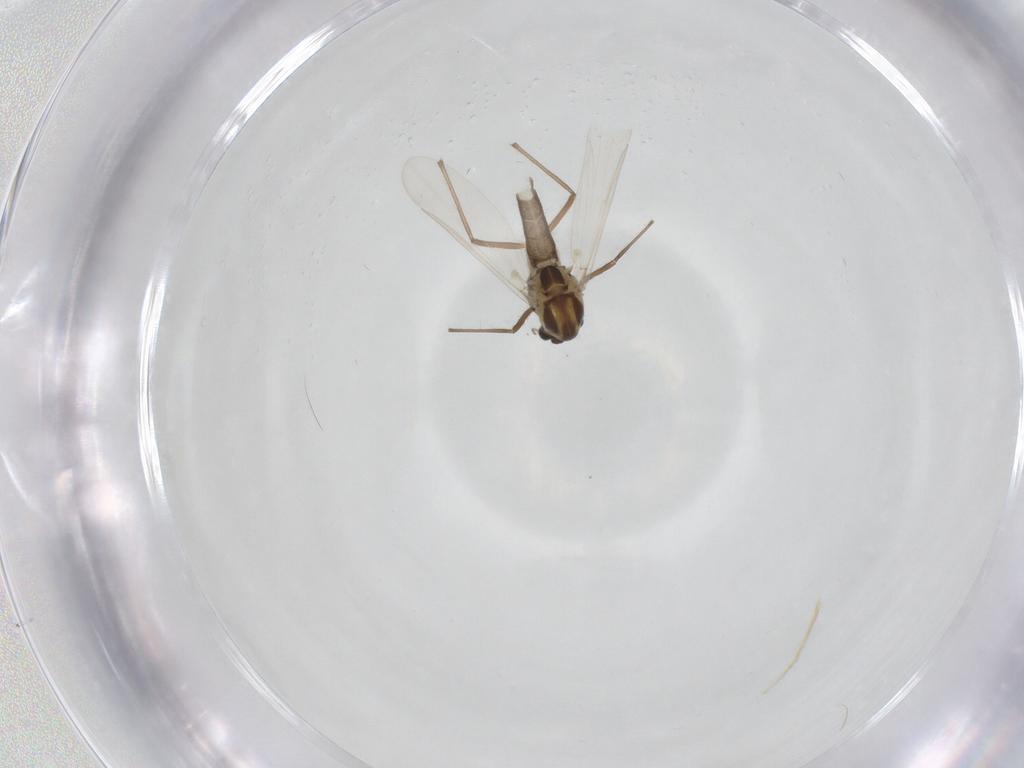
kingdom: Animalia
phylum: Arthropoda
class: Insecta
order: Diptera
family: Chironomidae
